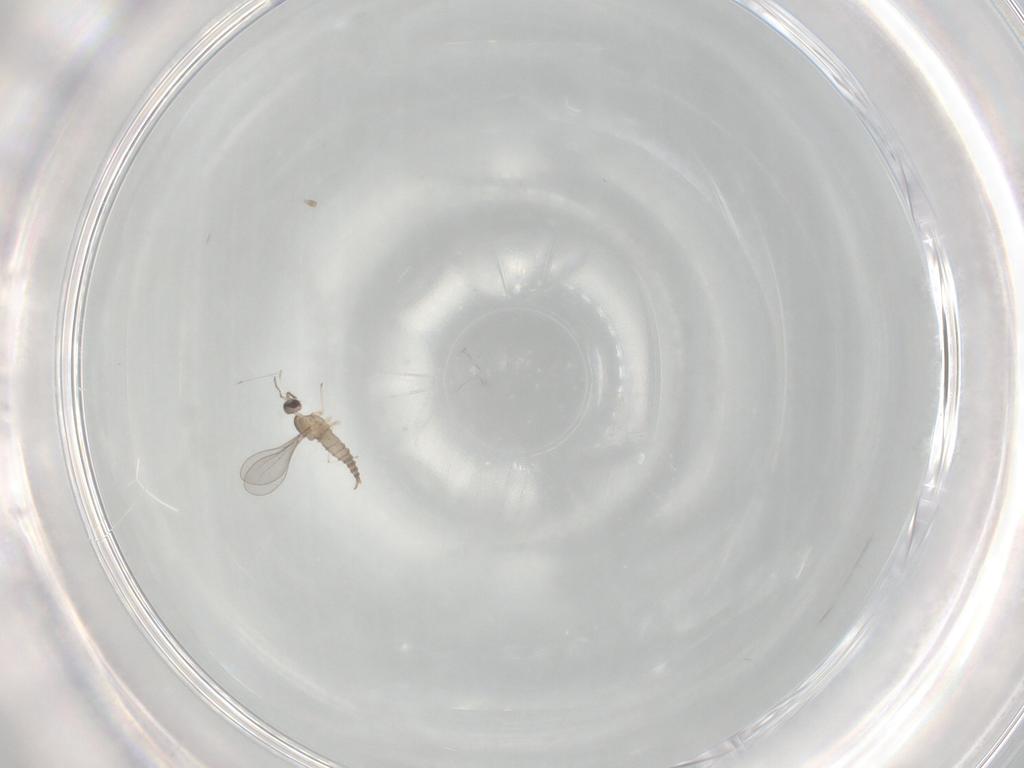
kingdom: Animalia
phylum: Arthropoda
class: Insecta
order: Diptera
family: Cecidomyiidae
